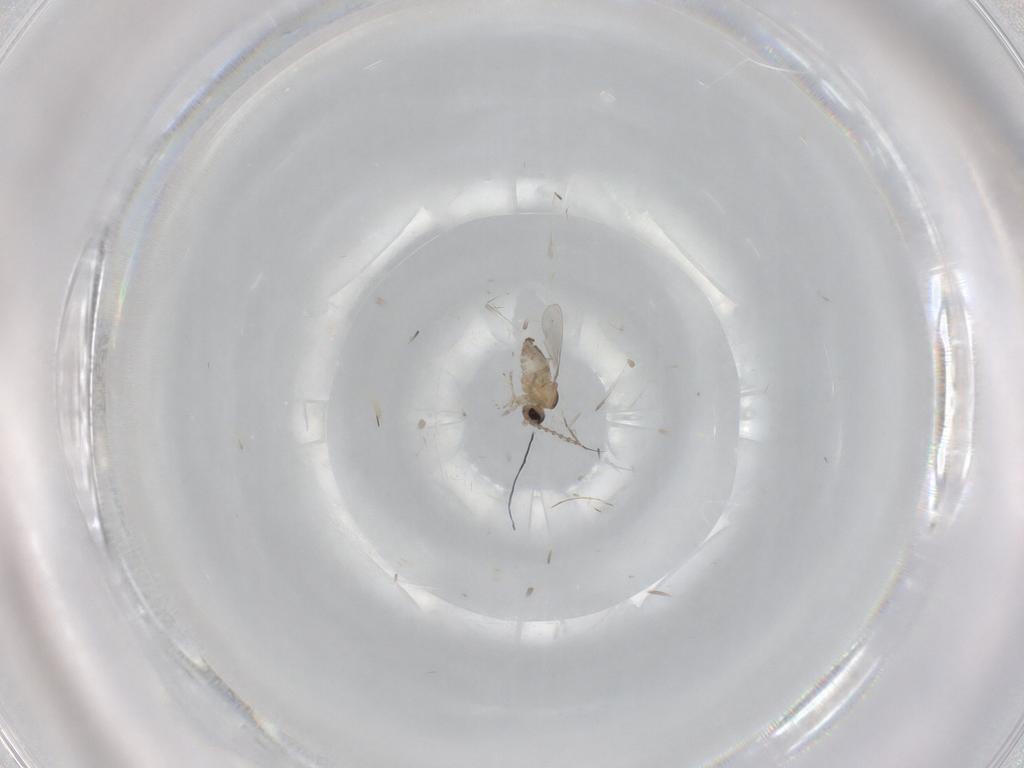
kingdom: Animalia
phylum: Arthropoda
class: Insecta
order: Diptera
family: Cecidomyiidae
